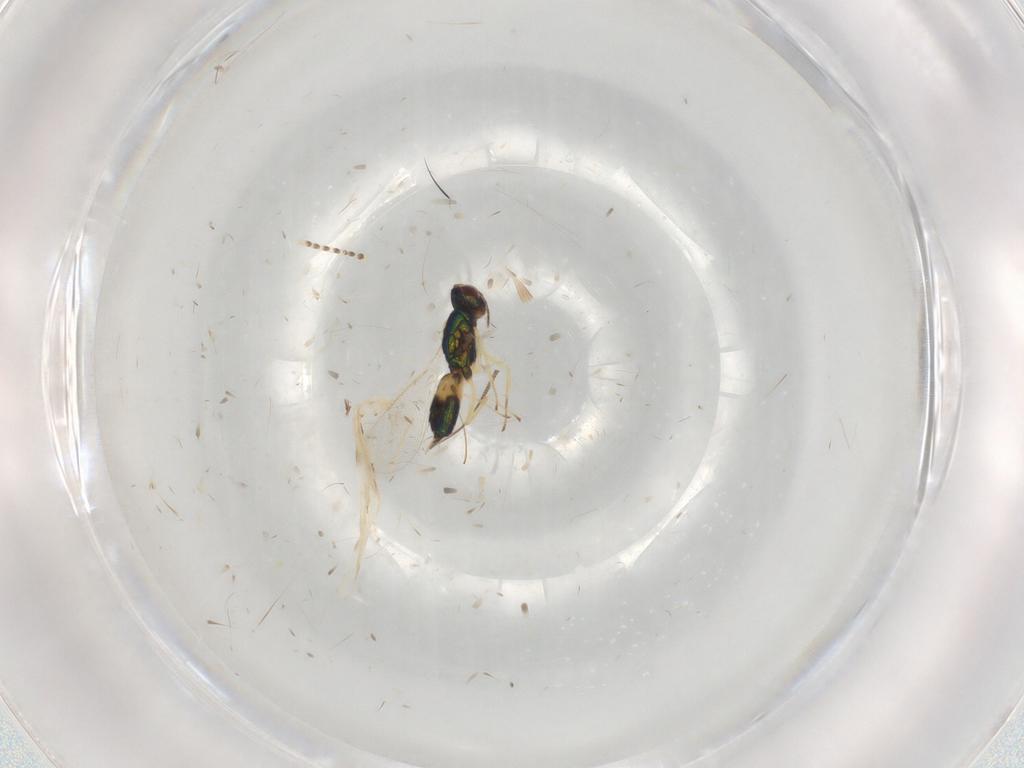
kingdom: Animalia
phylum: Arthropoda
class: Insecta
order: Hymenoptera
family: Eulophidae
